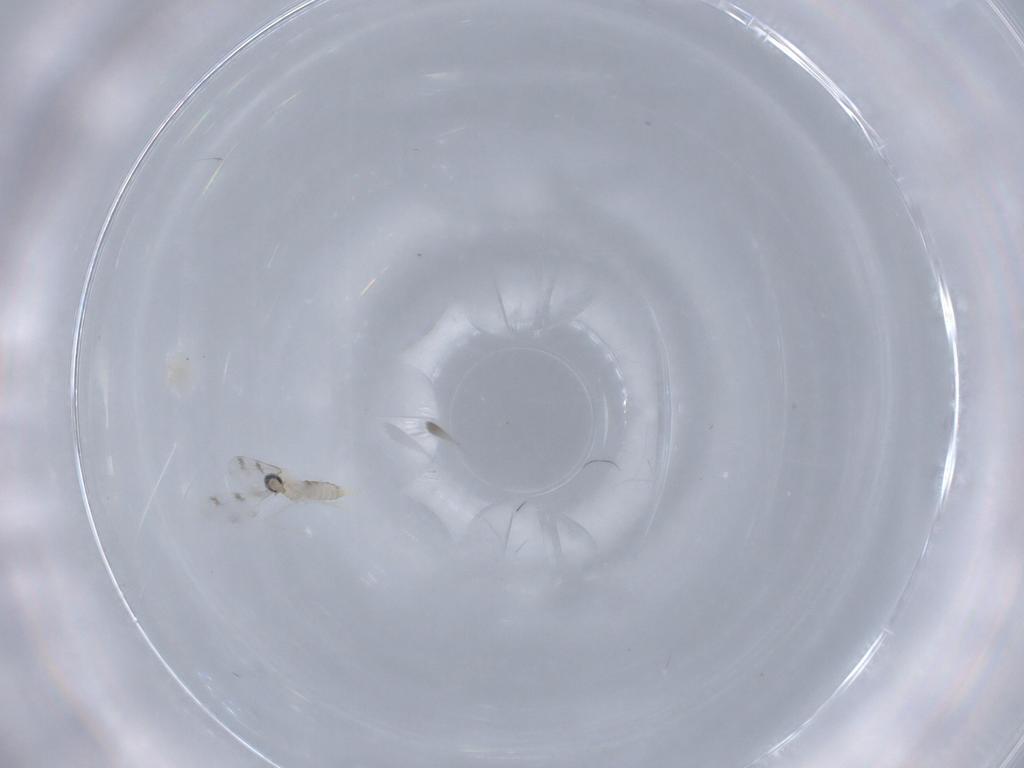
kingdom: Animalia
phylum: Arthropoda
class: Insecta
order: Diptera
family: Cecidomyiidae
